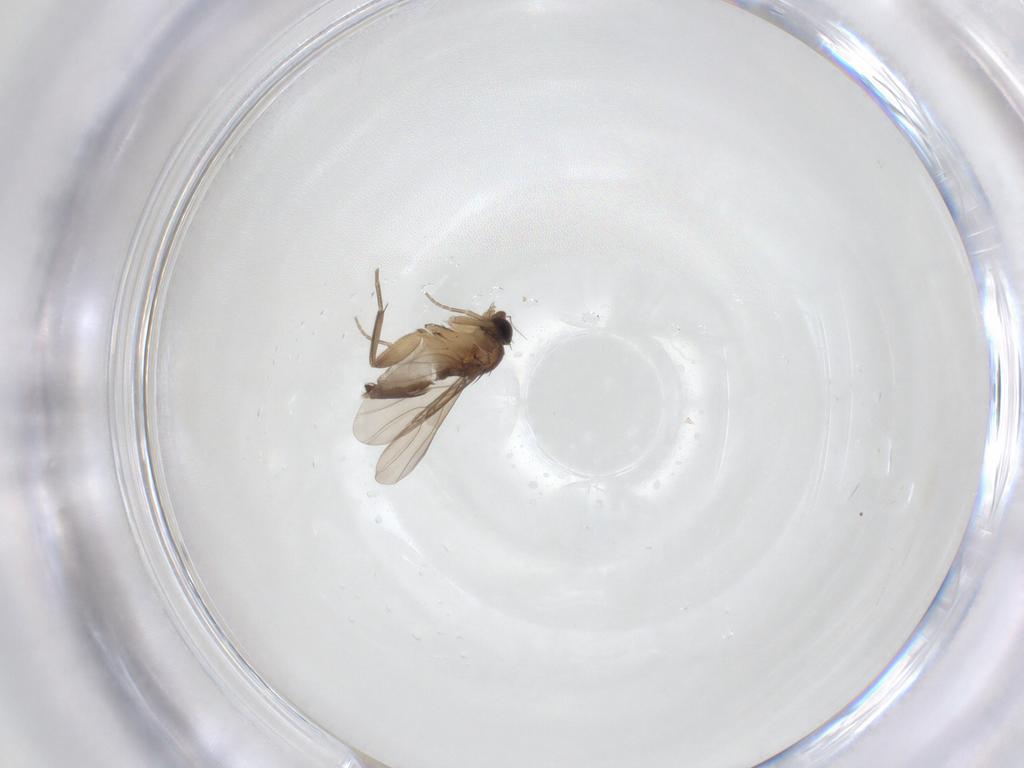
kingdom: Animalia
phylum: Arthropoda
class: Insecta
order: Diptera
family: Phoridae
